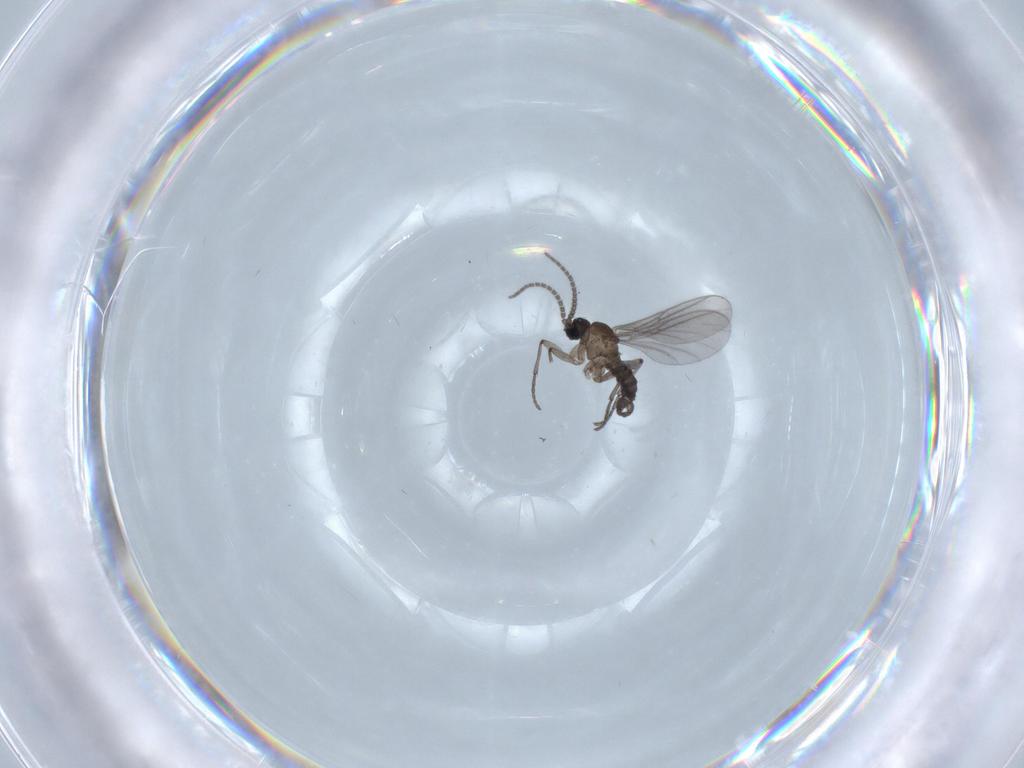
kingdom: Animalia
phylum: Arthropoda
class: Insecta
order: Diptera
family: Sciaridae
